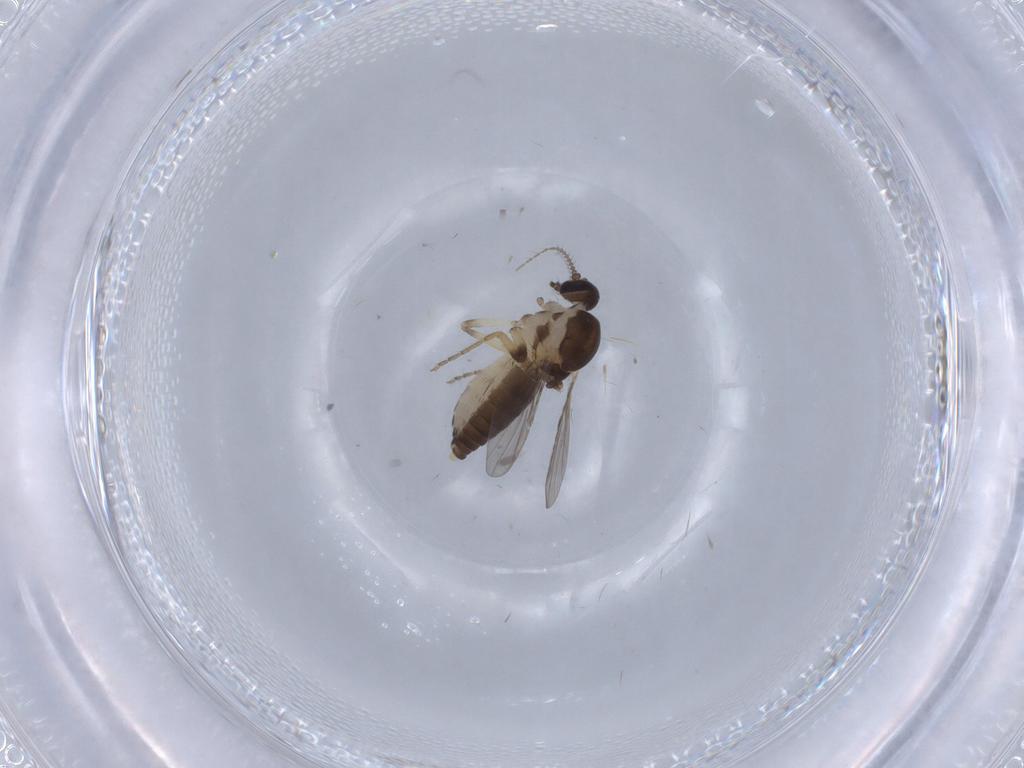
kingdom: Animalia
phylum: Arthropoda
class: Insecta
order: Diptera
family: Ceratopogonidae
